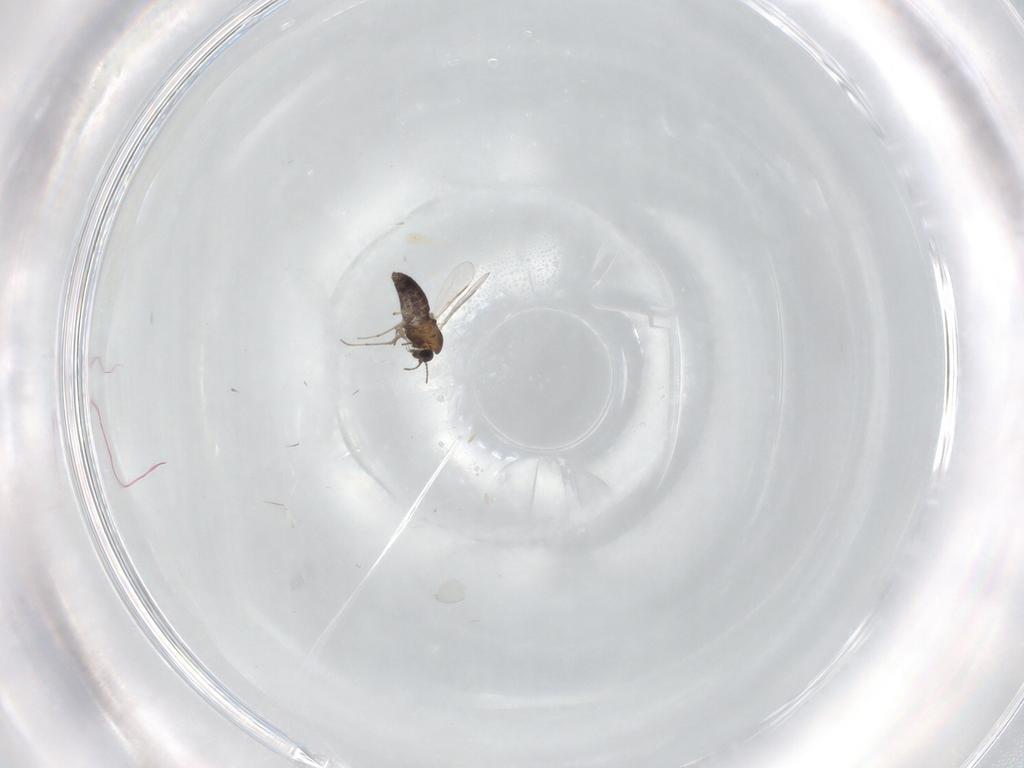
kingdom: Animalia
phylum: Arthropoda
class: Insecta
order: Diptera
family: Chironomidae
